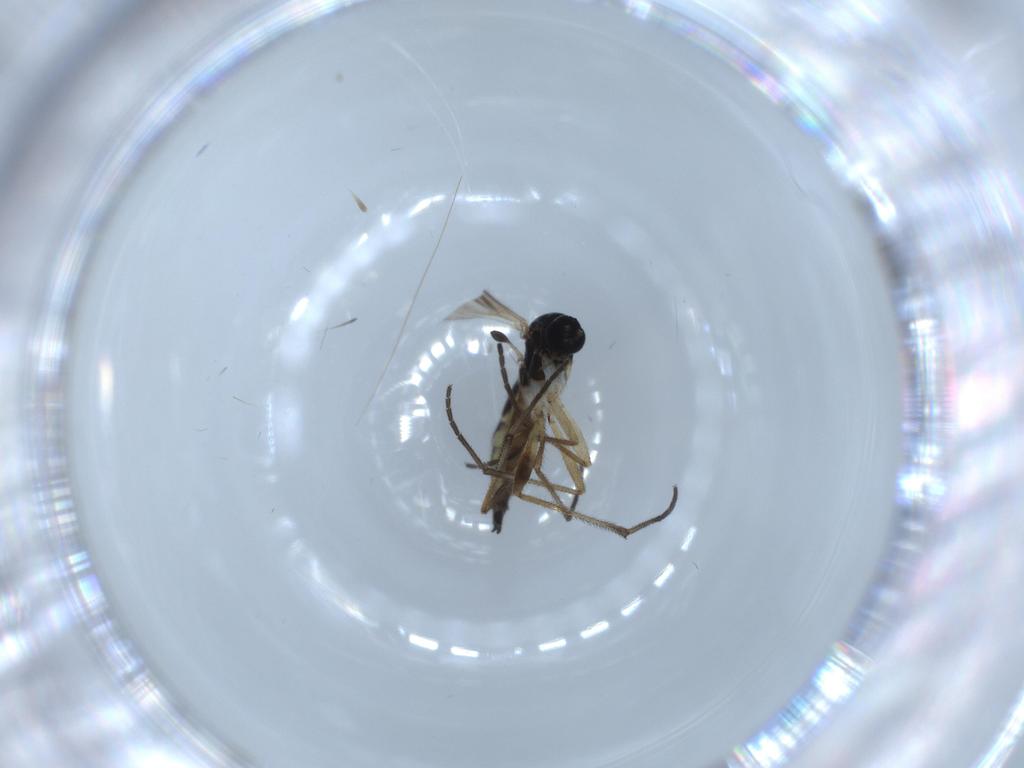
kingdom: Animalia
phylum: Arthropoda
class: Insecta
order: Diptera
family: Sciaridae
